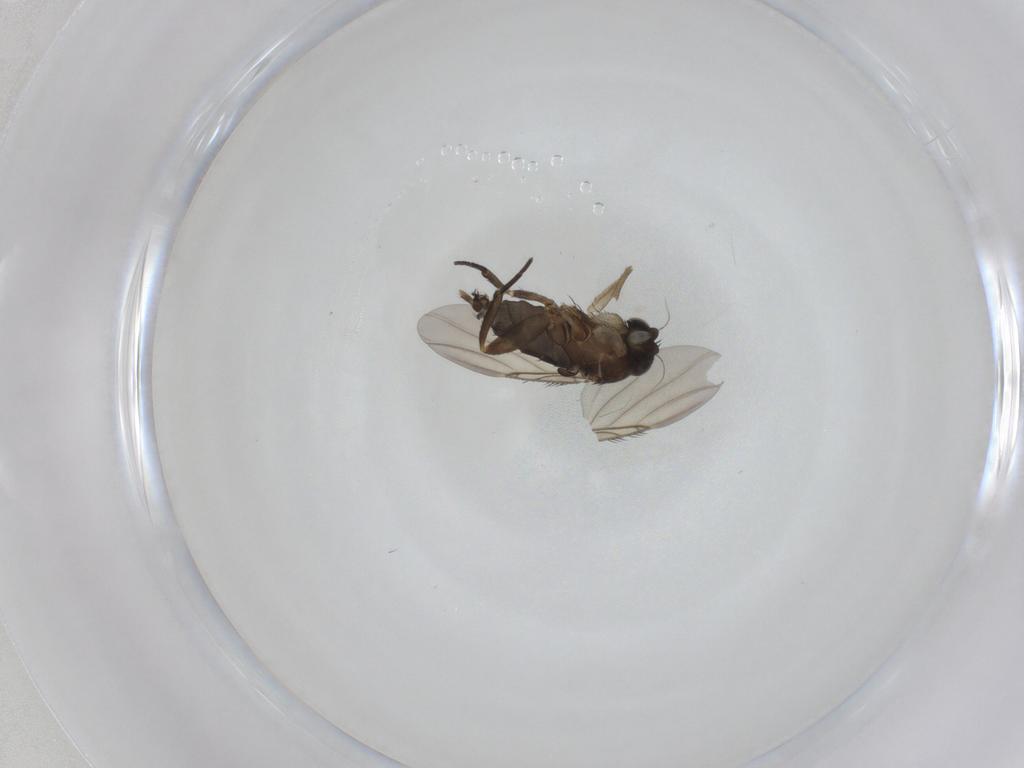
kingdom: Animalia
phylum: Arthropoda
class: Insecta
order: Diptera
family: Phoridae
